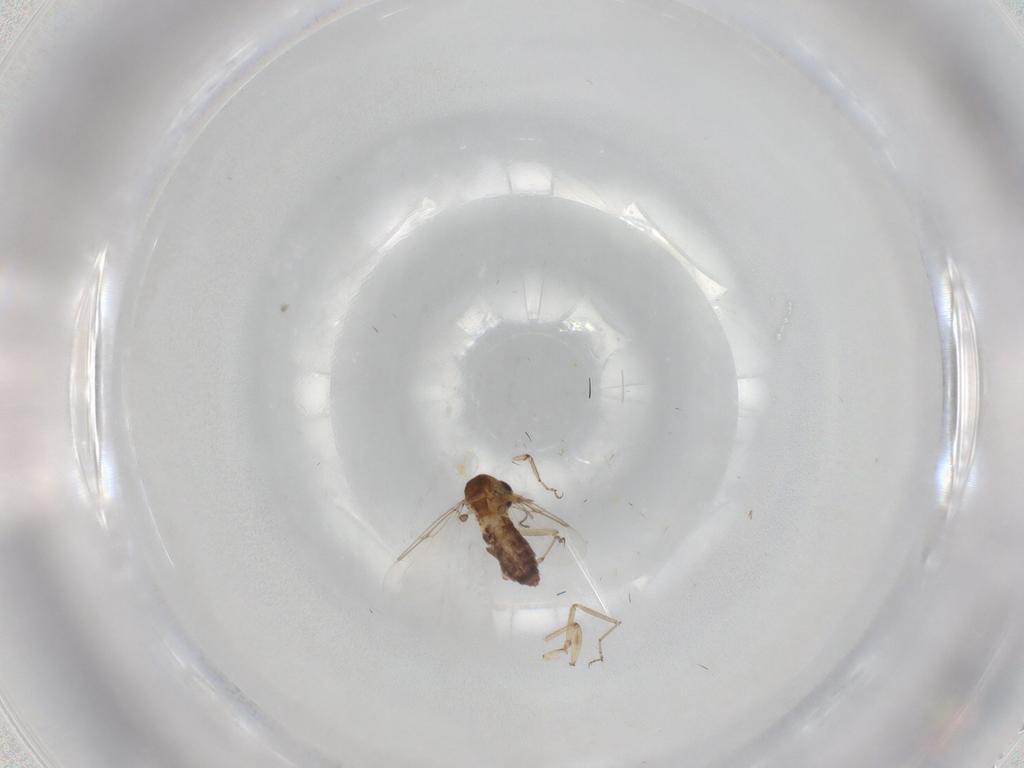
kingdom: Animalia
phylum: Arthropoda
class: Insecta
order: Diptera
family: Ceratopogonidae
